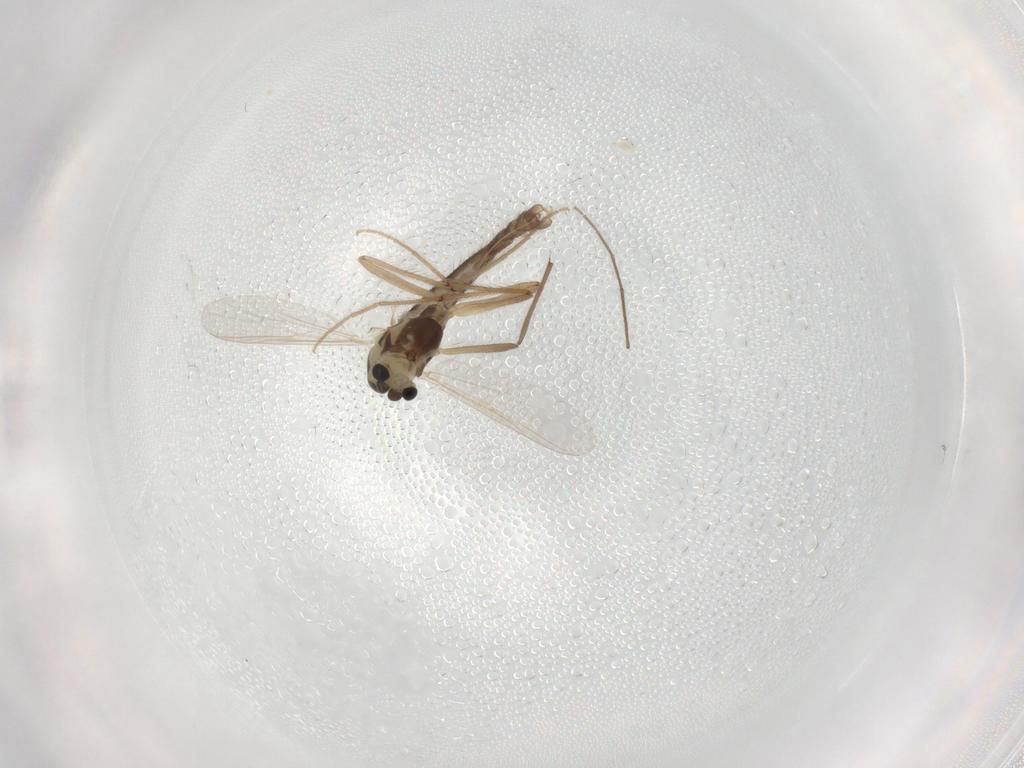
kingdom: Animalia
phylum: Arthropoda
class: Insecta
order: Diptera
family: Chironomidae
